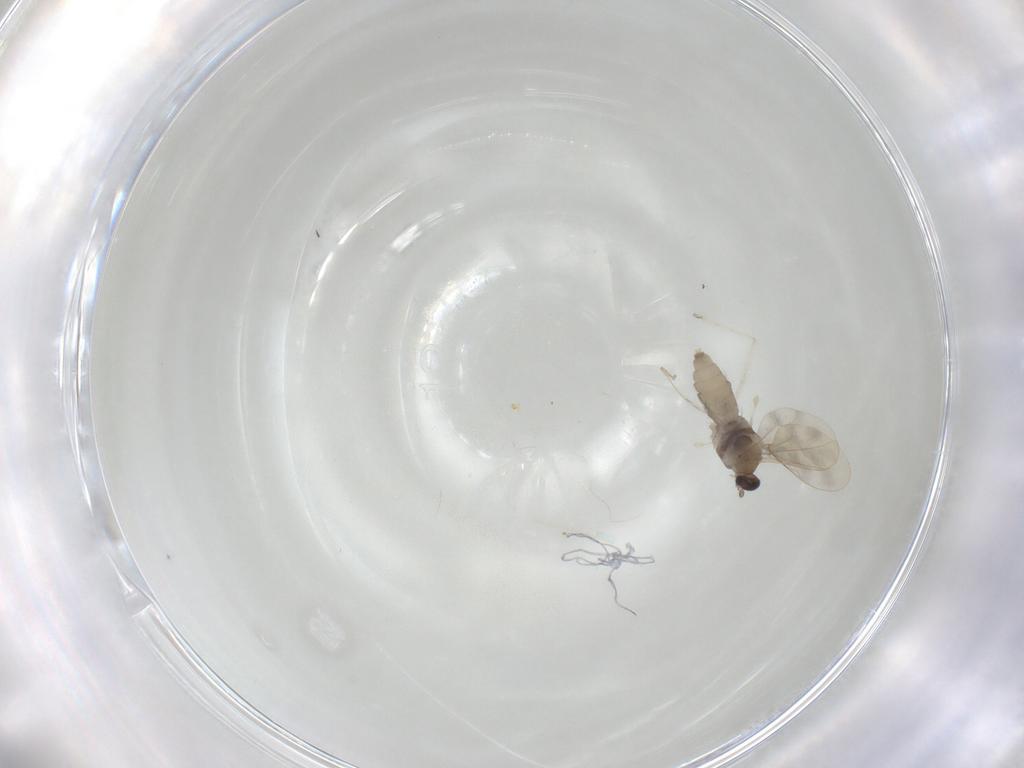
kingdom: Animalia
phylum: Arthropoda
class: Insecta
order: Diptera
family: Cecidomyiidae
